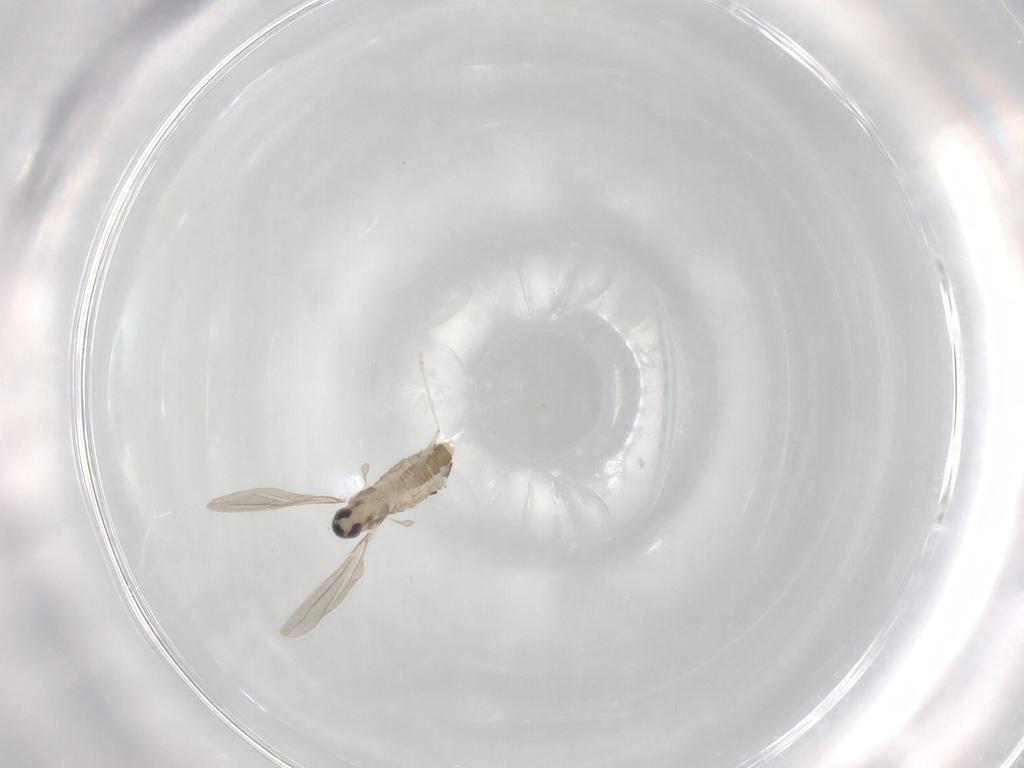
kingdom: Animalia
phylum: Arthropoda
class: Insecta
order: Diptera
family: Cecidomyiidae
